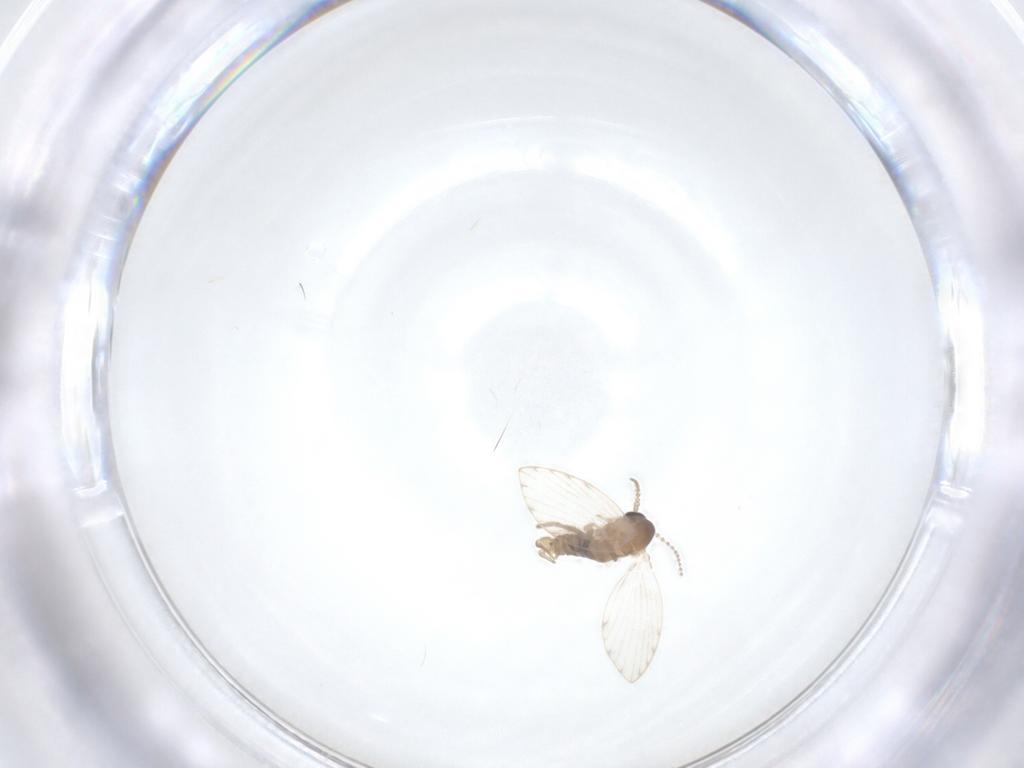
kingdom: Animalia
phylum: Arthropoda
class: Insecta
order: Diptera
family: Psychodidae
